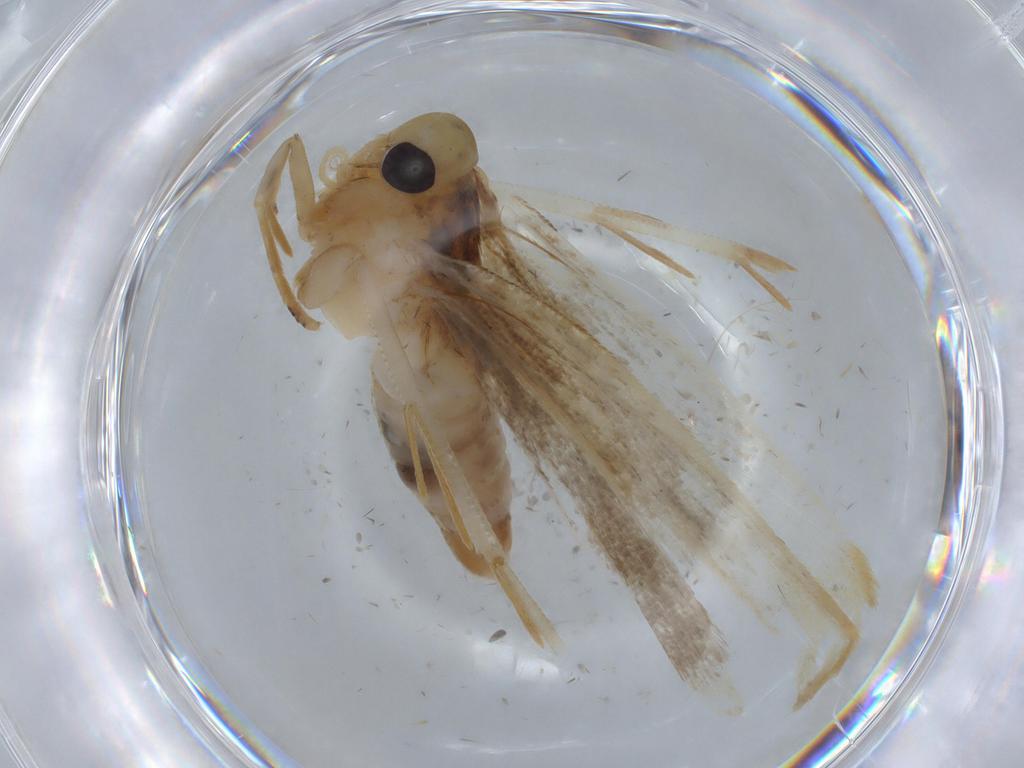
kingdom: Animalia
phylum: Arthropoda
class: Insecta
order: Lepidoptera
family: Gelechiidae
